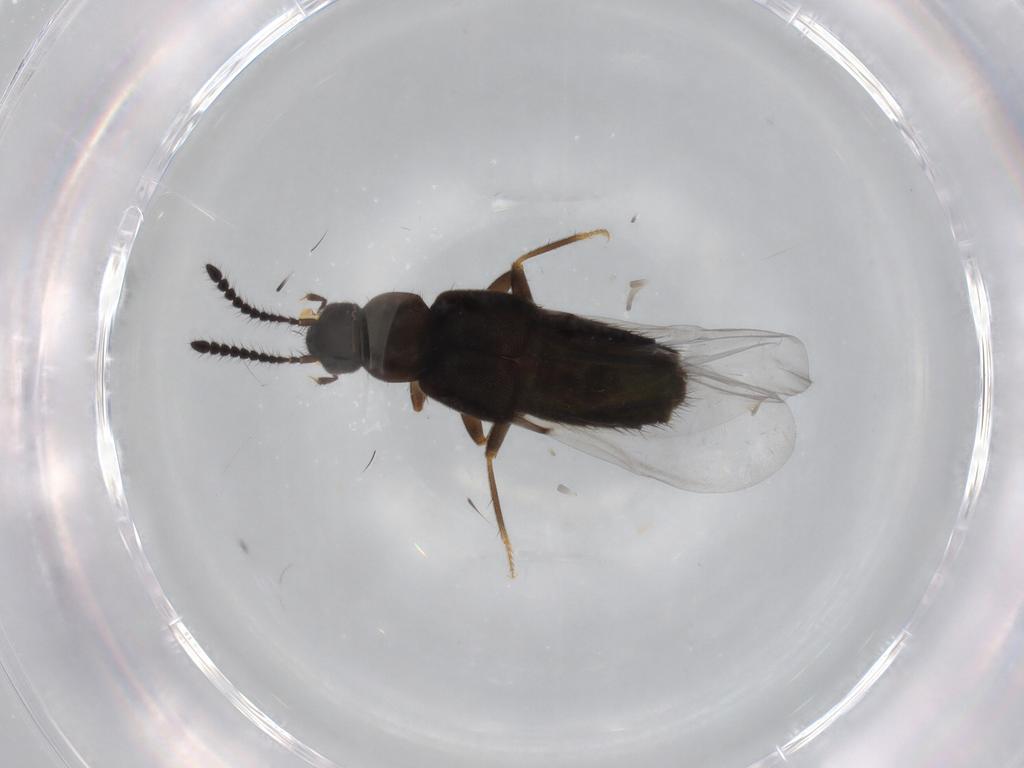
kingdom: Animalia
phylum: Arthropoda
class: Insecta
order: Coleoptera
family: Staphylinidae
